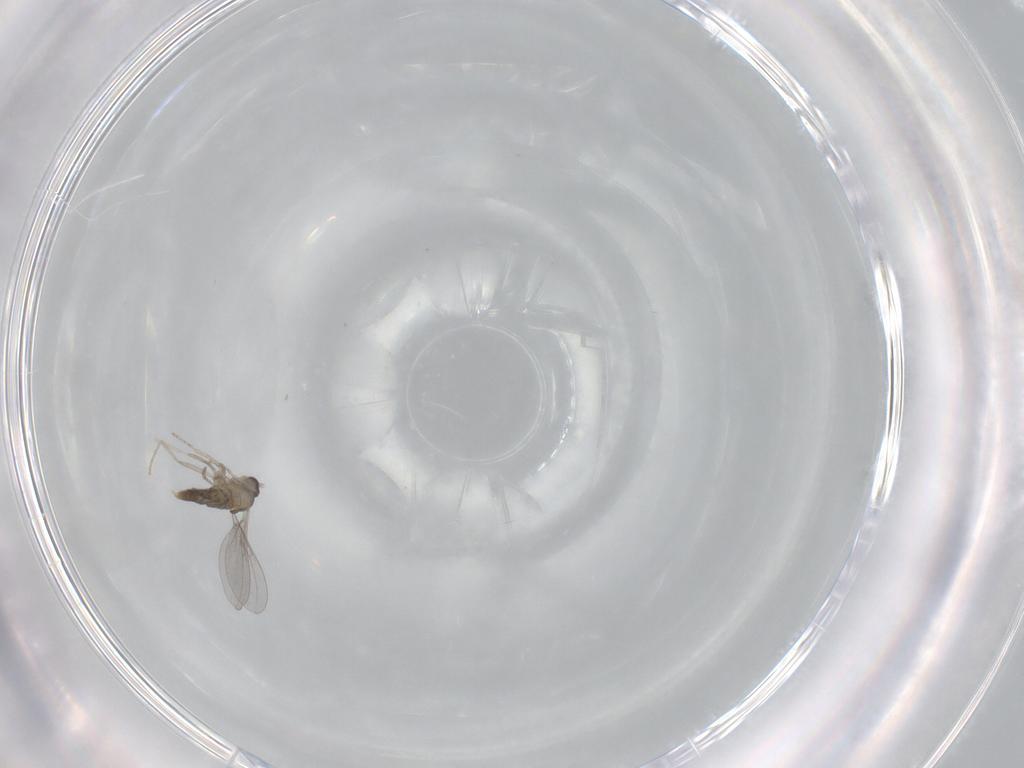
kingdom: Animalia
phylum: Arthropoda
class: Insecta
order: Diptera
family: Cecidomyiidae
